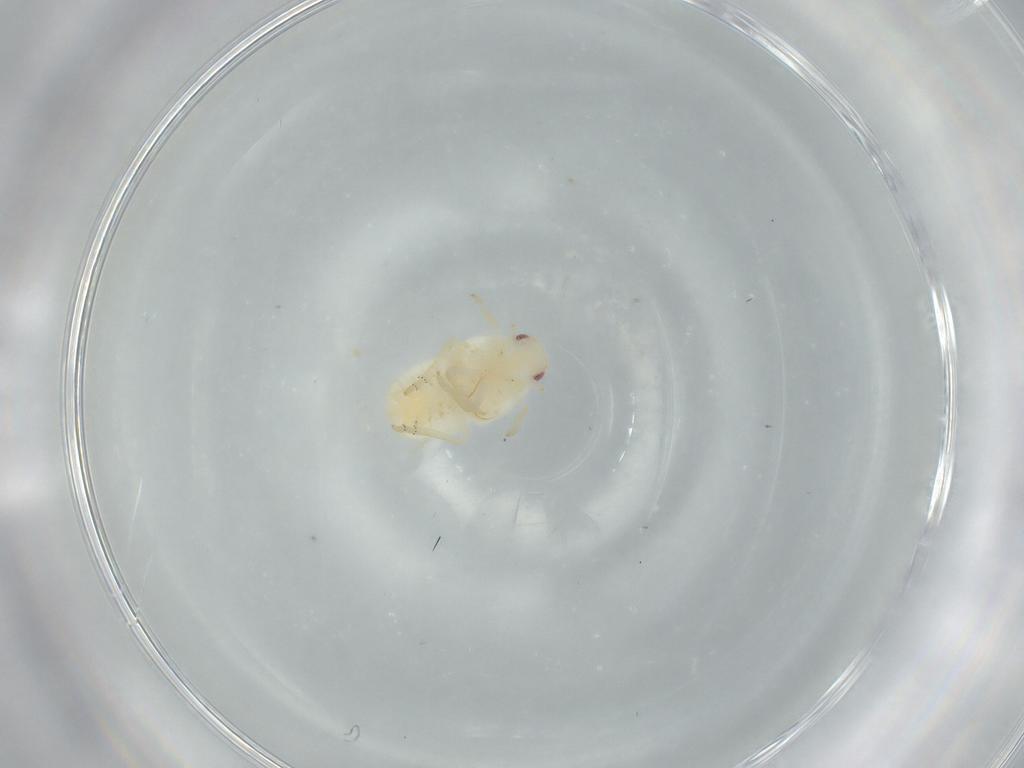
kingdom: Animalia
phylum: Arthropoda
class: Insecta
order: Hemiptera
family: Flatidae
